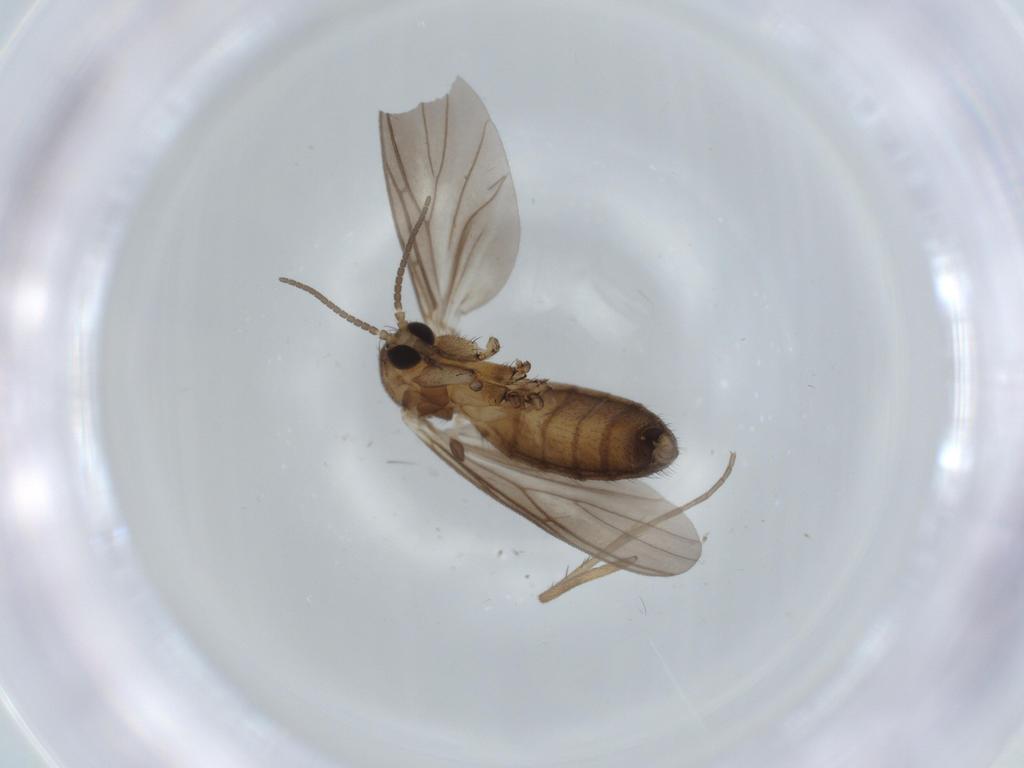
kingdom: Animalia
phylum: Arthropoda
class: Insecta
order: Diptera
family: Mycetophilidae
